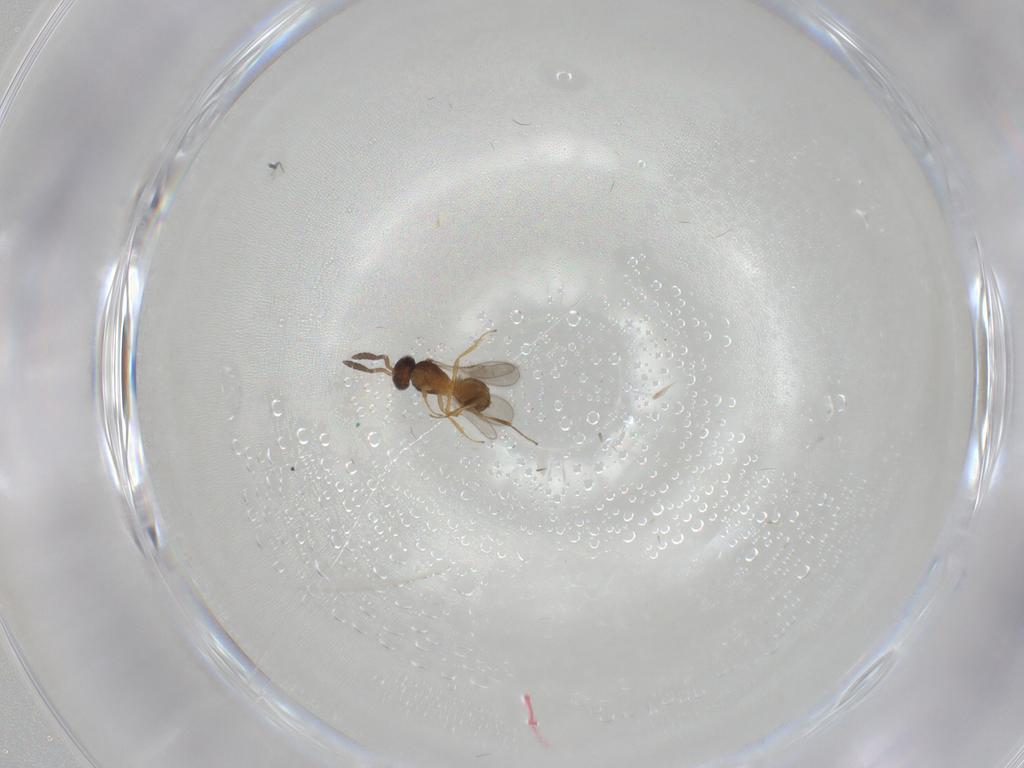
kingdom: Animalia
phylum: Arthropoda
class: Insecta
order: Hymenoptera
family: Scelionidae
